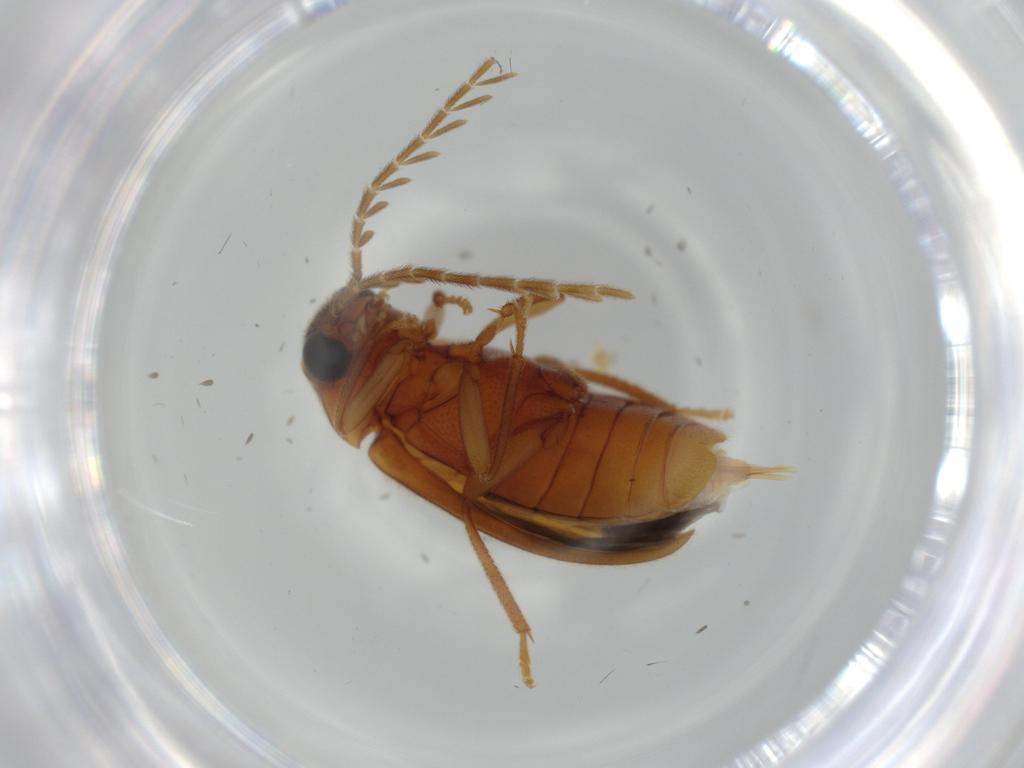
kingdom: Animalia
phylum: Arthropoda
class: Insecta
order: Coleoptera
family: Ptilodactylidae
